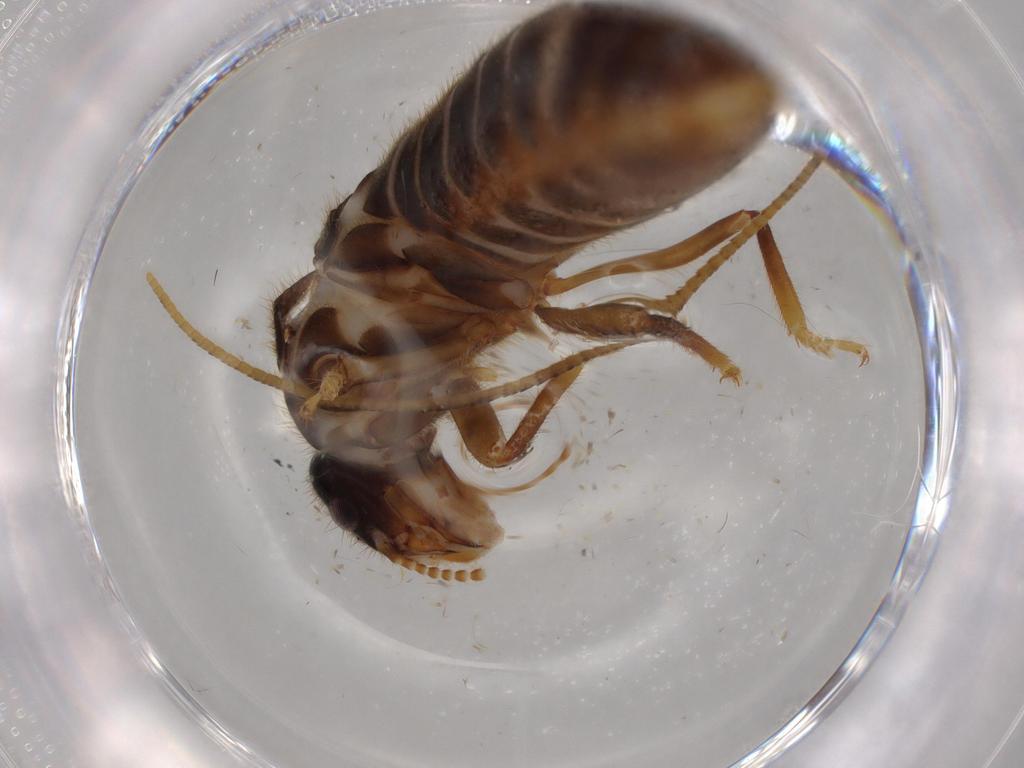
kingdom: Animalia
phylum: Arthropoda
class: Insecta
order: Blattodea
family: Termitidae
